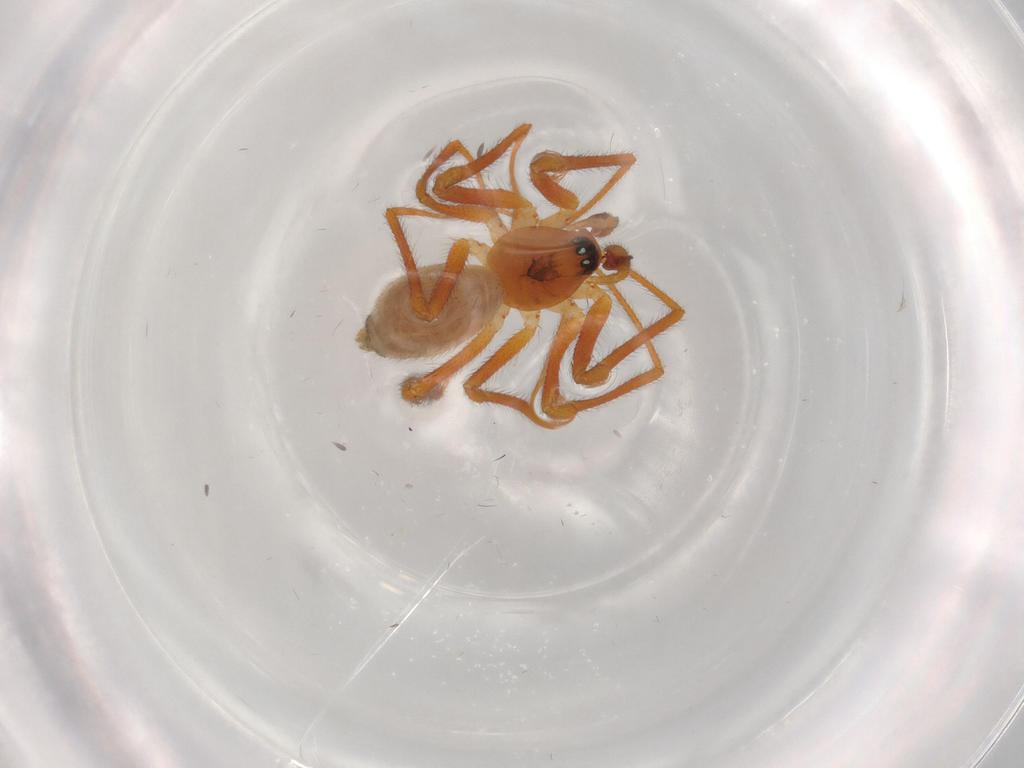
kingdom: Animalia
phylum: Arthropoda
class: Arachnida
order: Araneae
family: Linyphiidae
